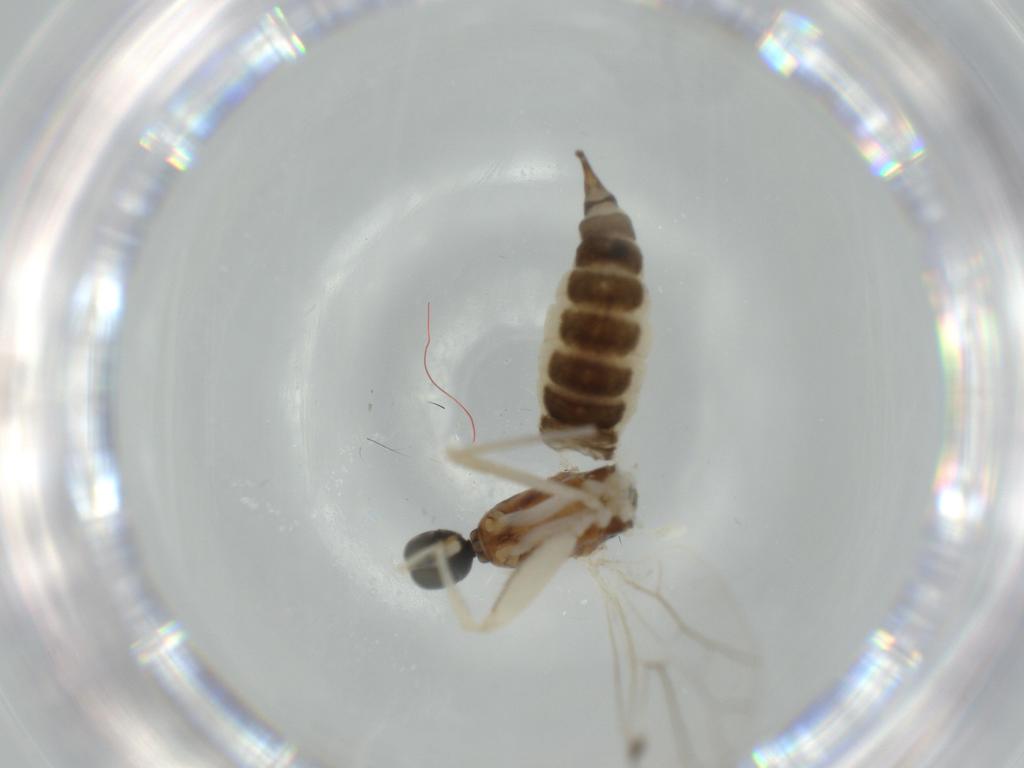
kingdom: Animalia
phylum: Arthropoda
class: Insecta
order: Diptera
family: Empididae
